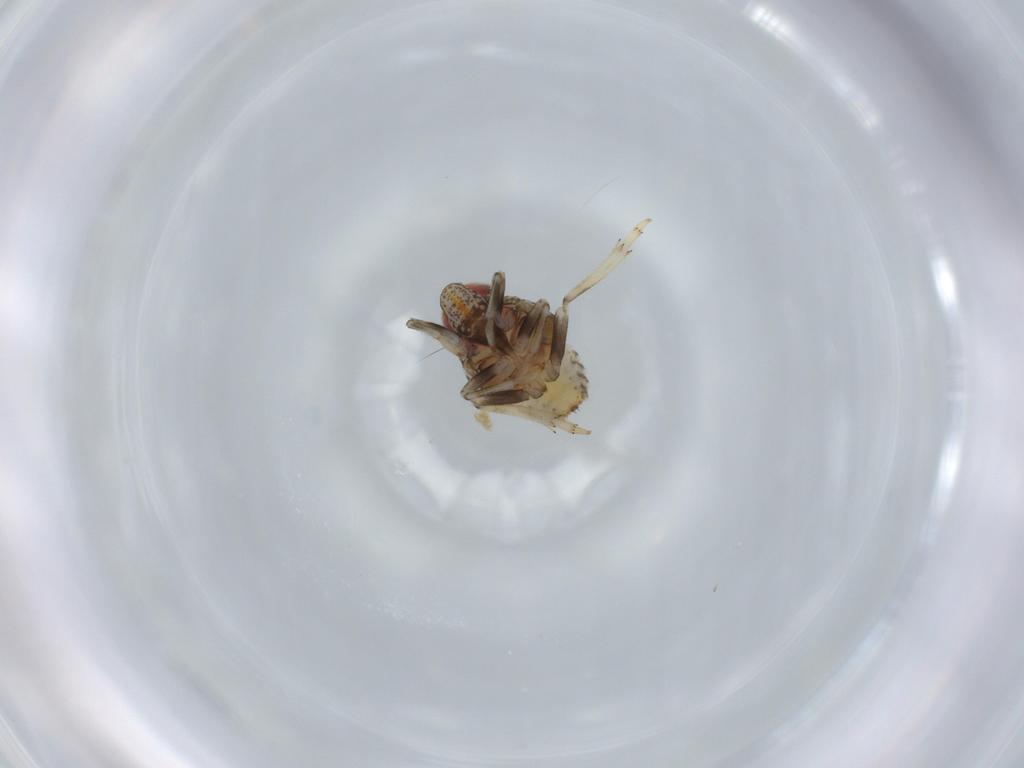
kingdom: Animalia
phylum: Arthropoda
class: Insecta
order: Hemiptera
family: Issidae
